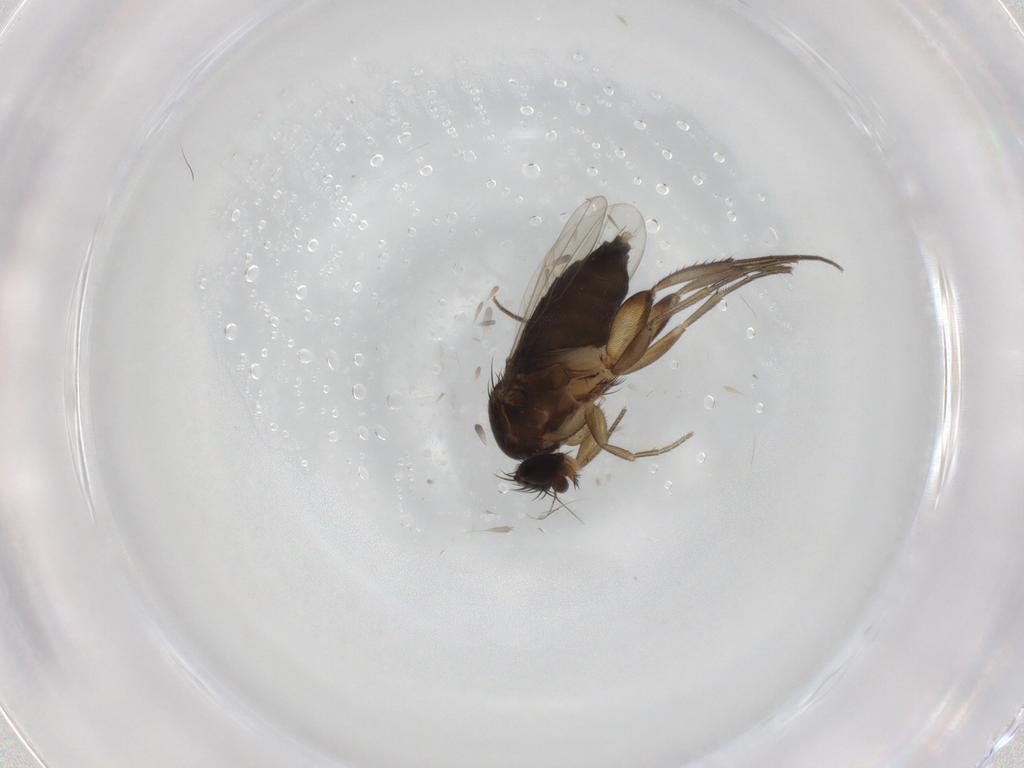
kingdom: Animalia
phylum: Arthropoda
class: Insecta
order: Diptera
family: Phoridae
